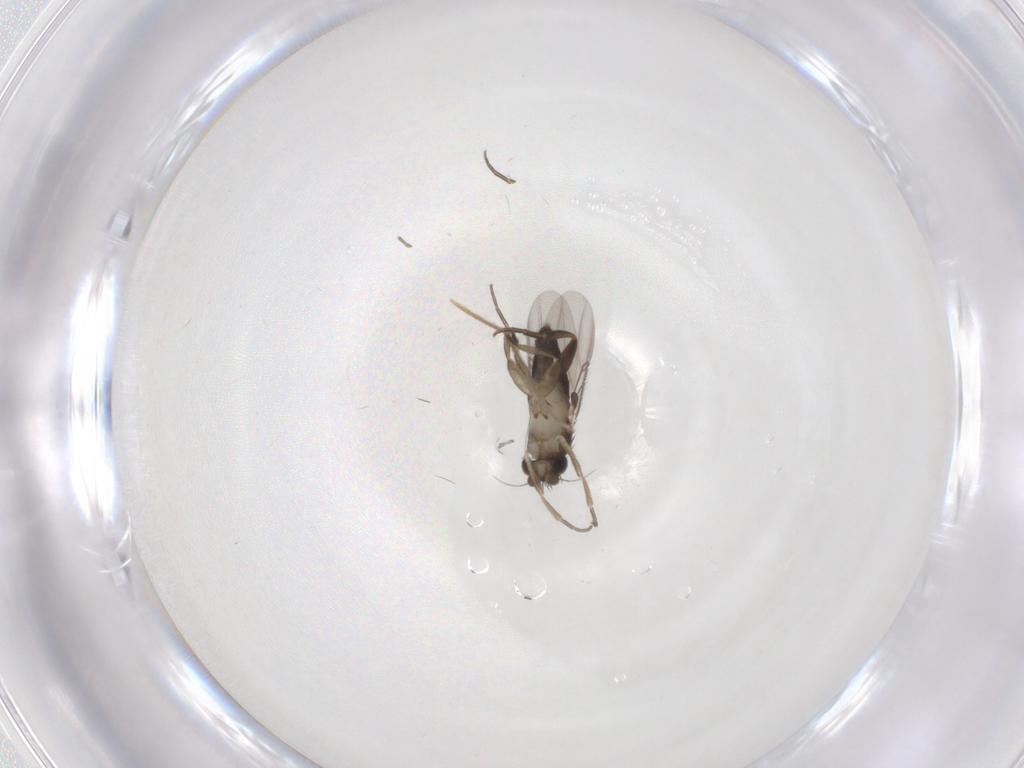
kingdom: Animalia
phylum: Arthropoda
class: Insecta
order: Diptera
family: Phoridae
